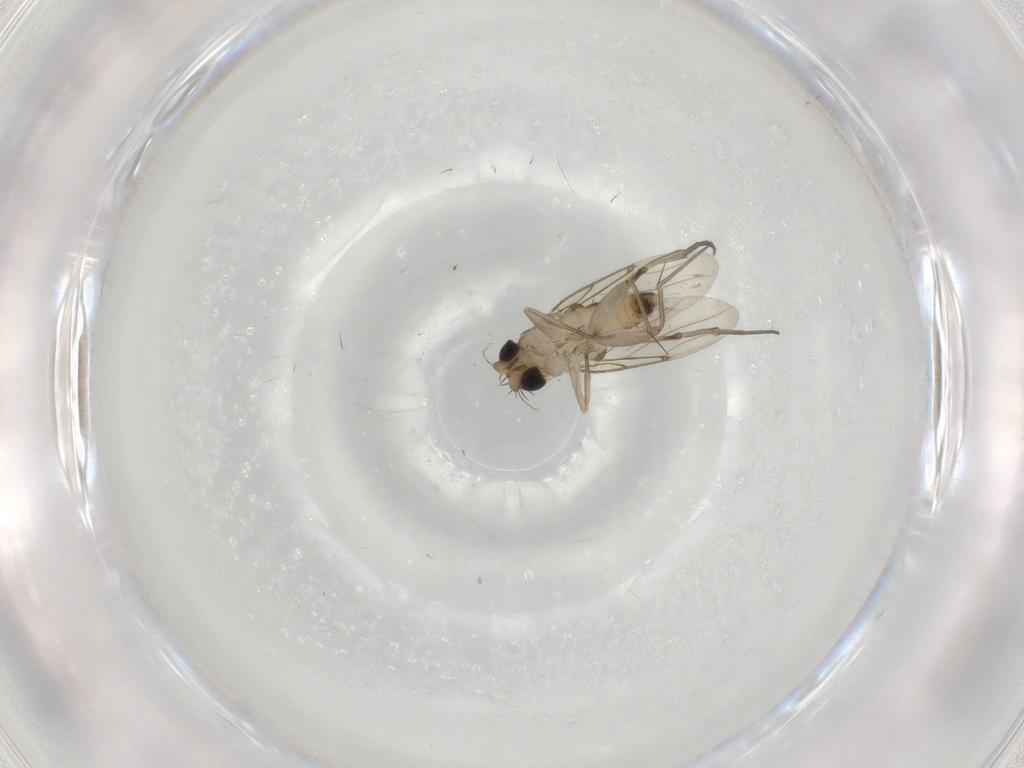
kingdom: Animalia
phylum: Arthropoda
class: Insecta
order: Diptera
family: Phoridae
